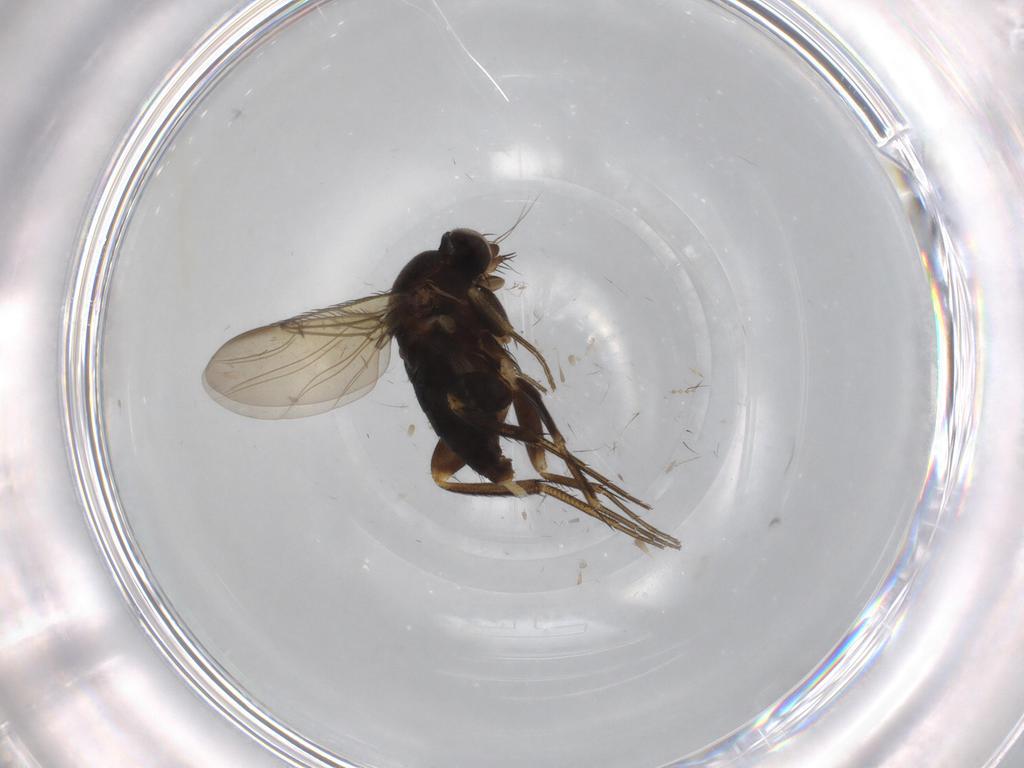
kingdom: Animalia
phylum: Arthropoda
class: Insecta
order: Diptera
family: Phoridae
